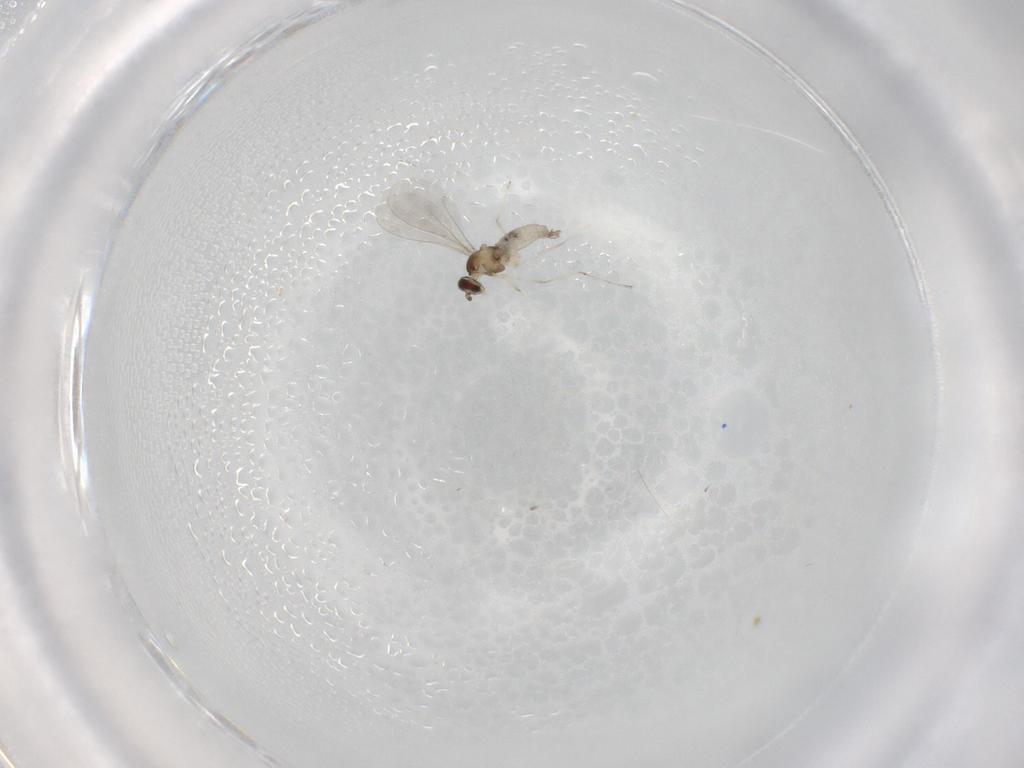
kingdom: Animalia
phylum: Arthropoda
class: Insecta
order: Diptera
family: Cecidomyiidae
